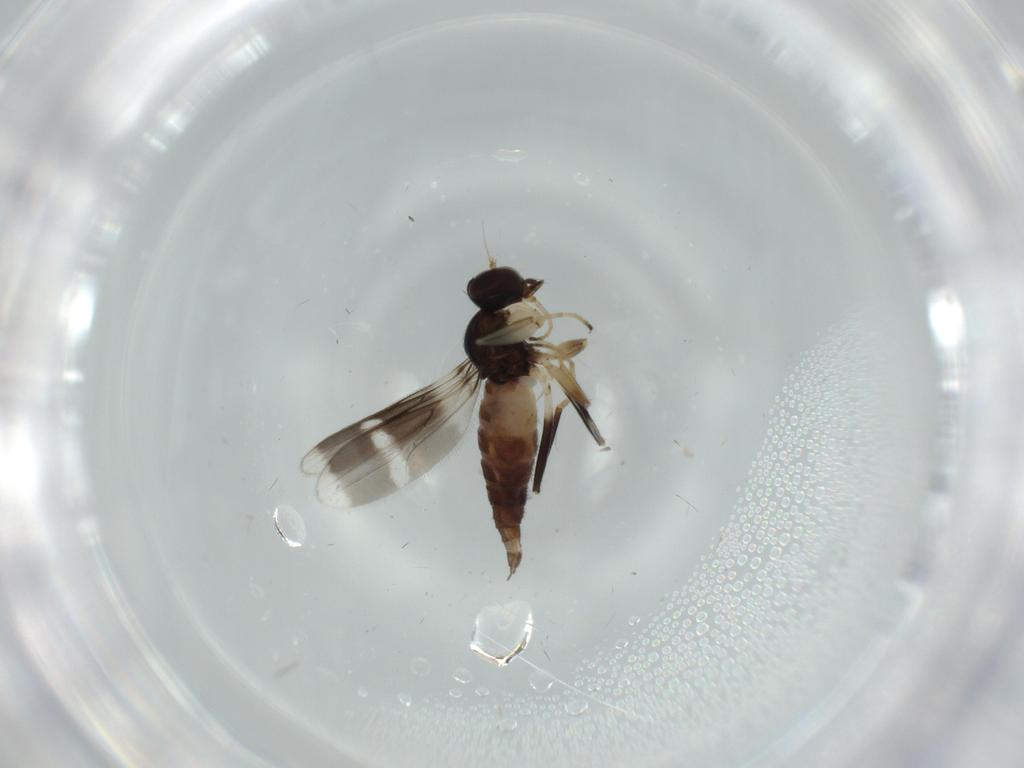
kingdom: Animalia
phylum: Arthropoda
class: Insecta
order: Diptera
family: Hybotidae
